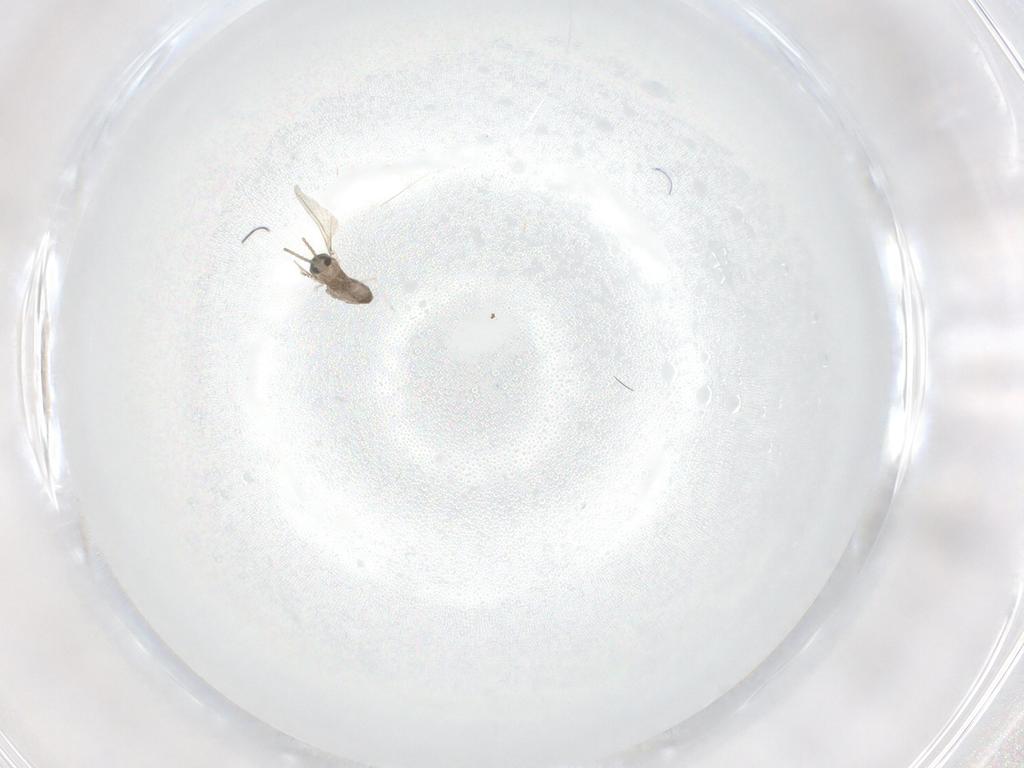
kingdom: Animalia
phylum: Arthropoda
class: Insecta
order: Diptera
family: Cecidomyiidae
